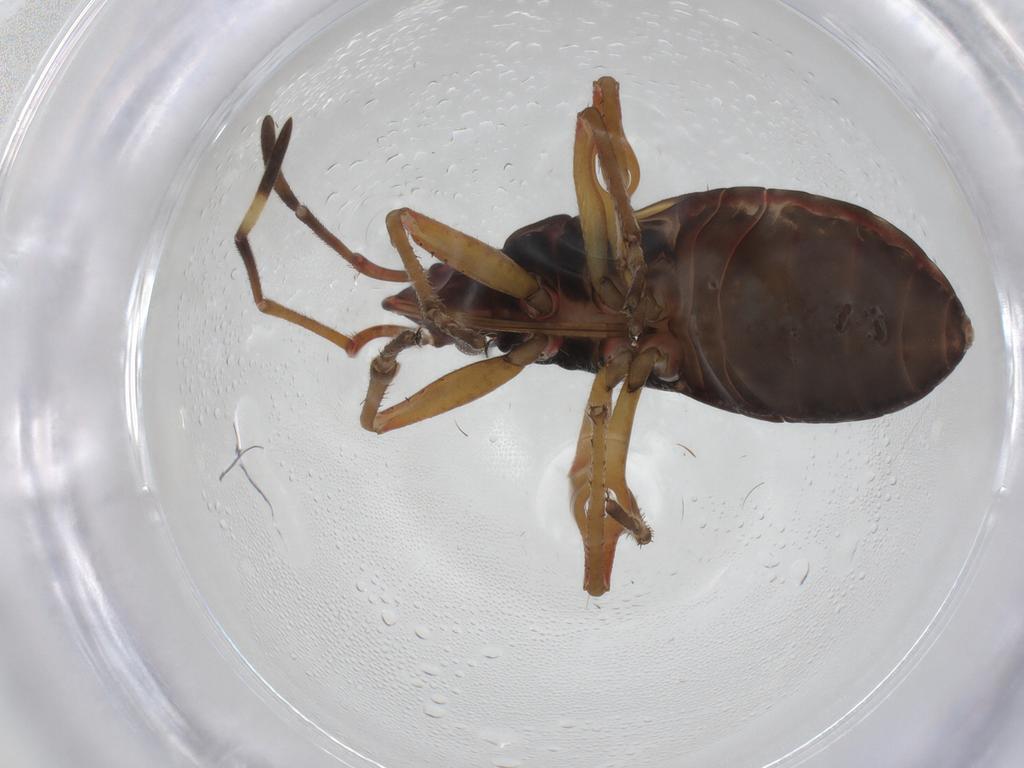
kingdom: Animalia
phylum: Arthropoda
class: Insecta
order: Hemiptera
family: Rhyparochromidae
